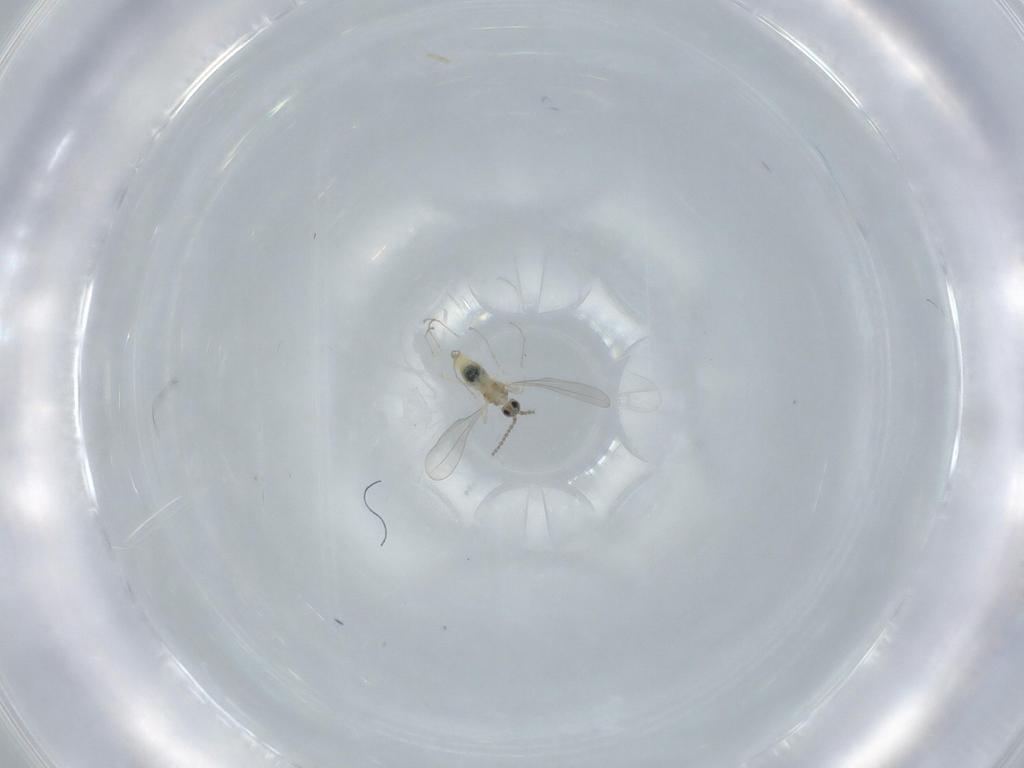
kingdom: Animalia
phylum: Arthropoda
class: Insecta
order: Diptera
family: Cecidomyiidae
